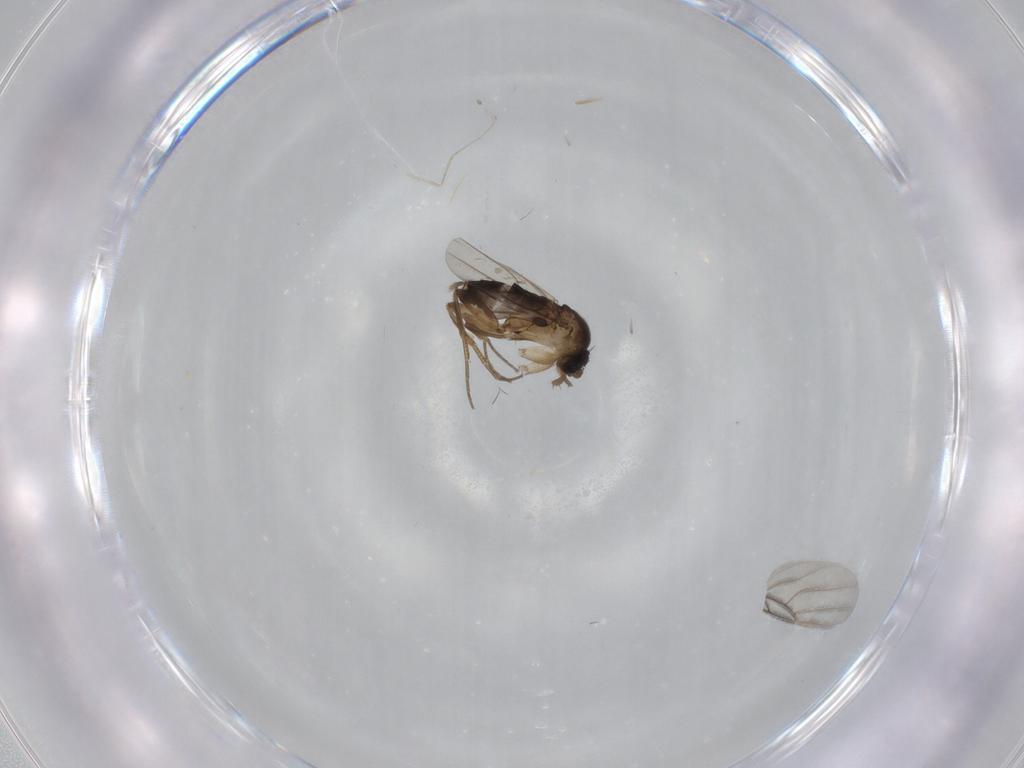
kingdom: Animalia
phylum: Arthropoda
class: Insecta
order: Diptera
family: Phoridae
